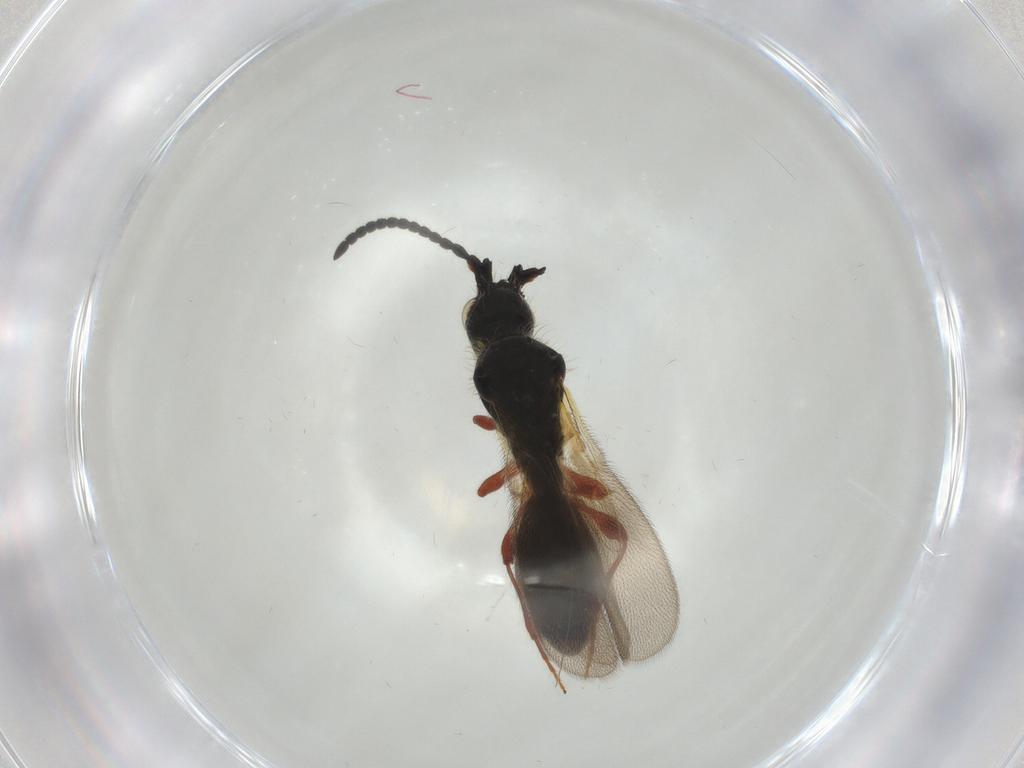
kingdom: Animalia
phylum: Arthropoda
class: Insecta
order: Hymenoptera
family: Diapriidae
